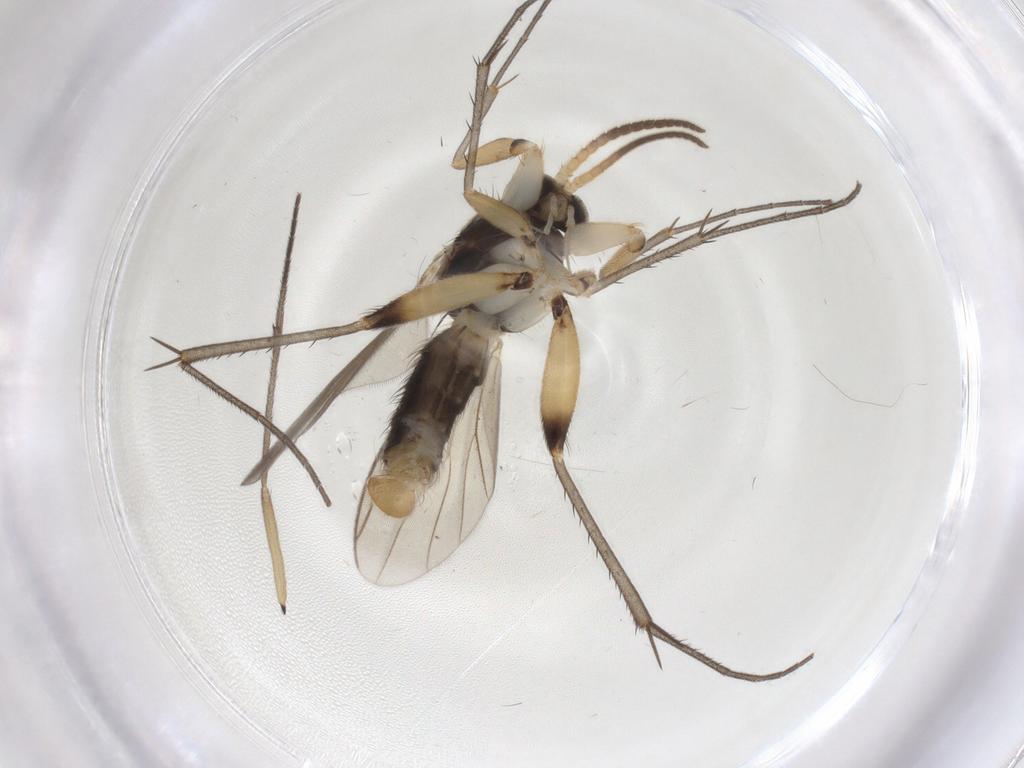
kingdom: Animalia
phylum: Arthropoda
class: Insecta
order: Diptera
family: Mycetophilidae
